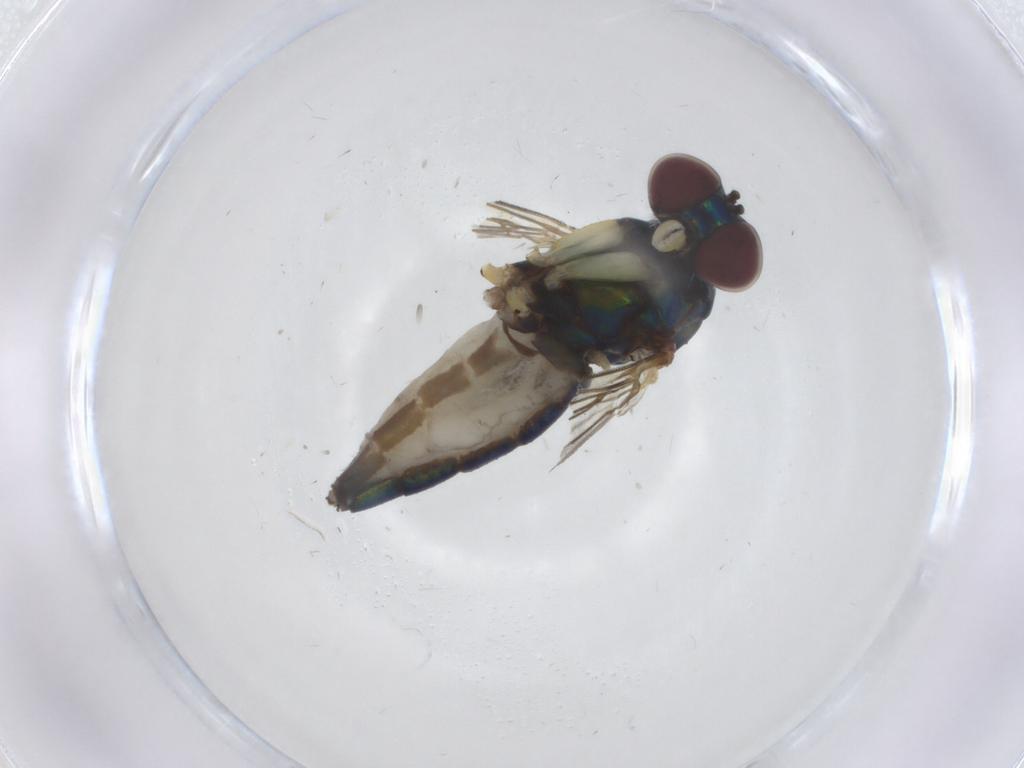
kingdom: Animalia
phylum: Arthropoda
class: Insecta
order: Diptera
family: Dolichopodidae
